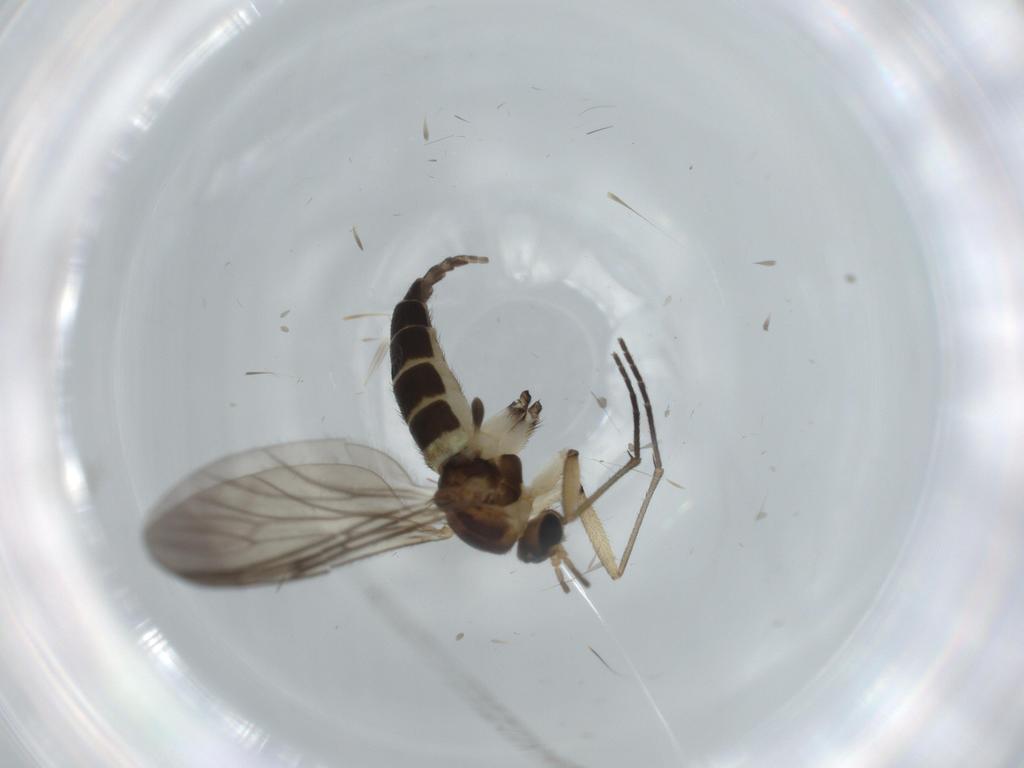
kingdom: Animalia
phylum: Arthropoda
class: Insecta
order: Diptera
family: Sciaridae
